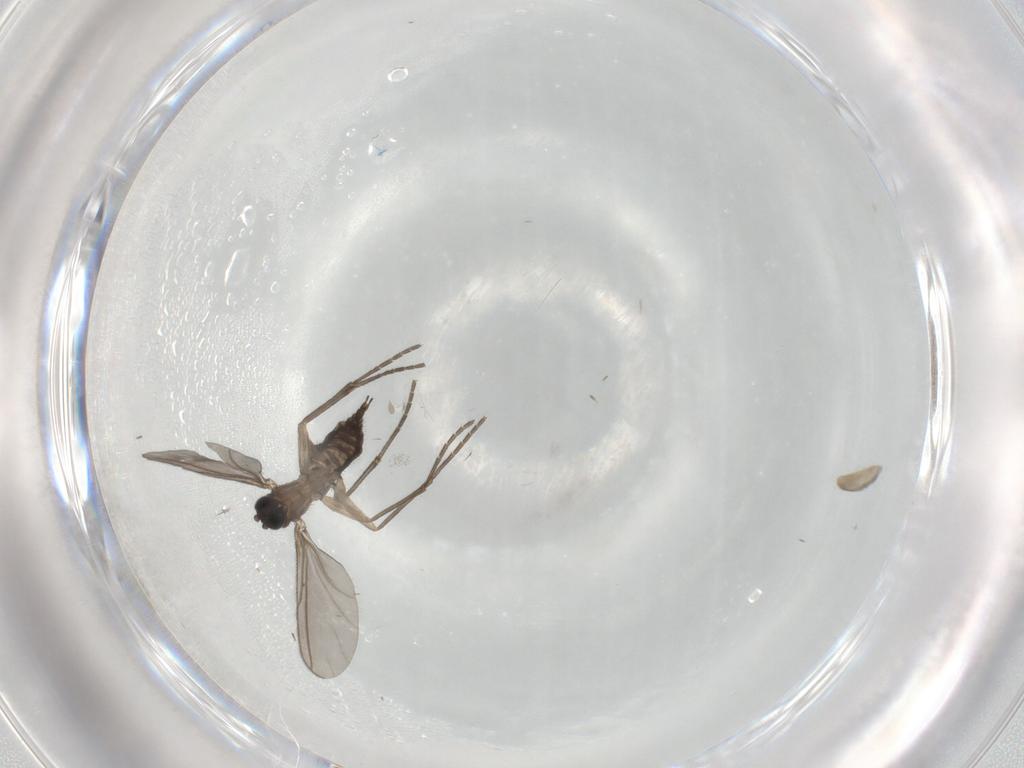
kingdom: Animalia
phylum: Arthropoda
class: Insecta
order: Diptera
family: Sciaridae
